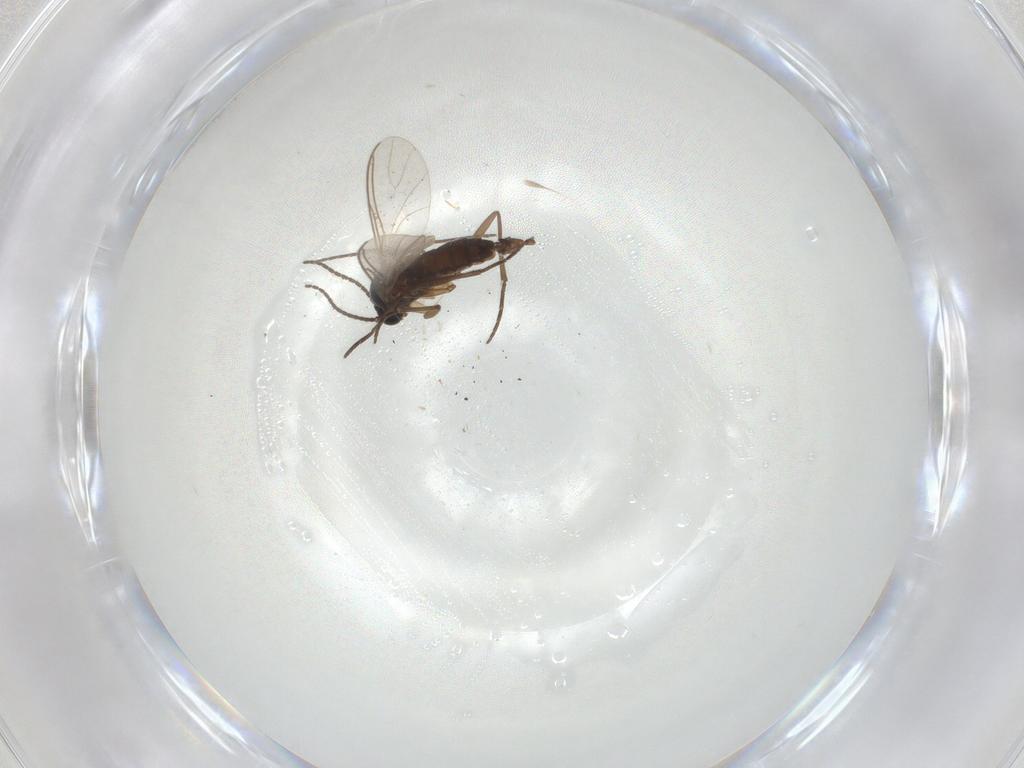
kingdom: Animalia
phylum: Arthropoda
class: Insecta
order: Diptera
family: Sciaridae
